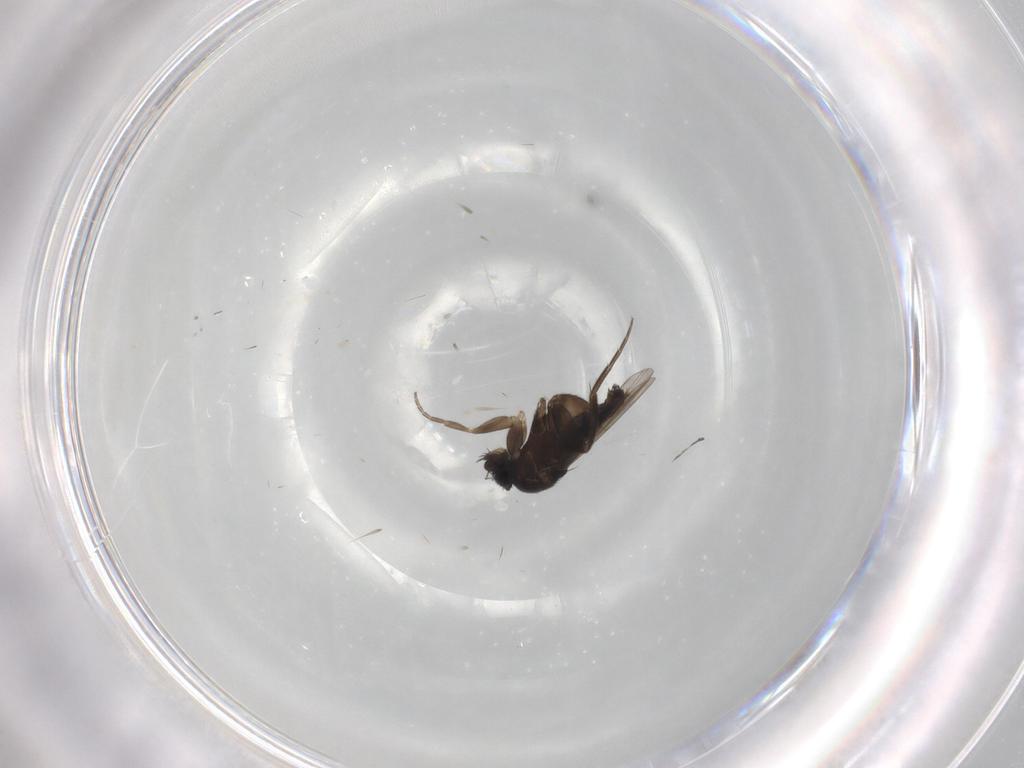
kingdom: Animalia
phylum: Arthropoda
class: Insecta
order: Diptera
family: Phoridae
